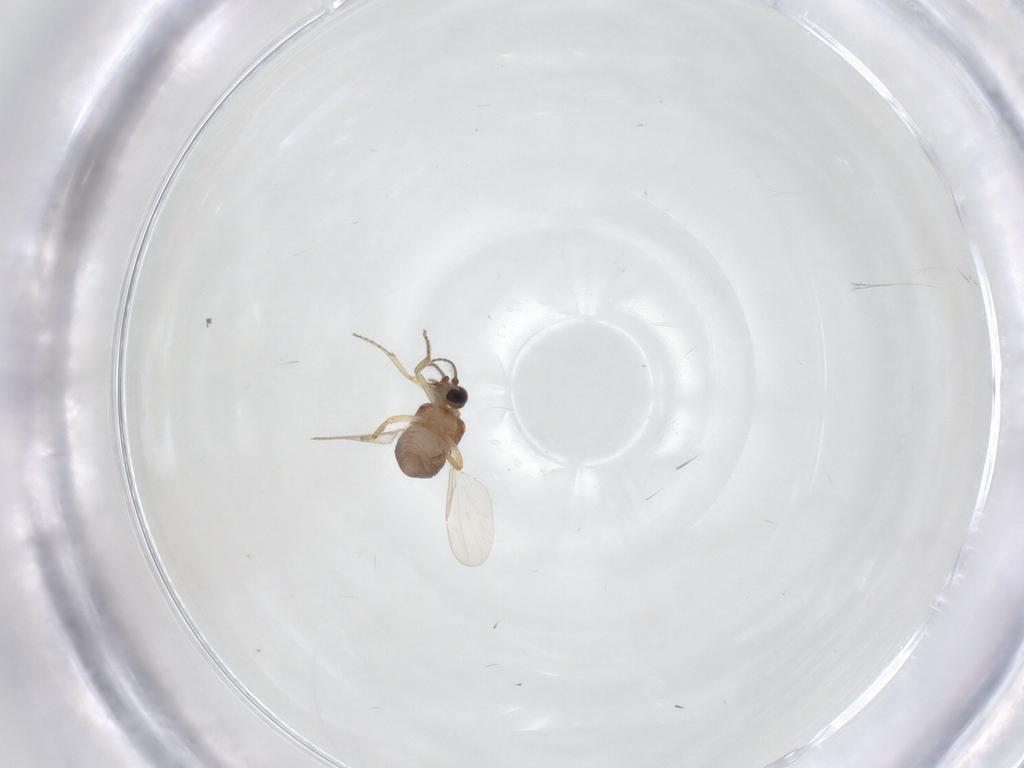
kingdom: Animalia
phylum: Arthropoda
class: Insecta
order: Diptera
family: Ceratopogonidae
